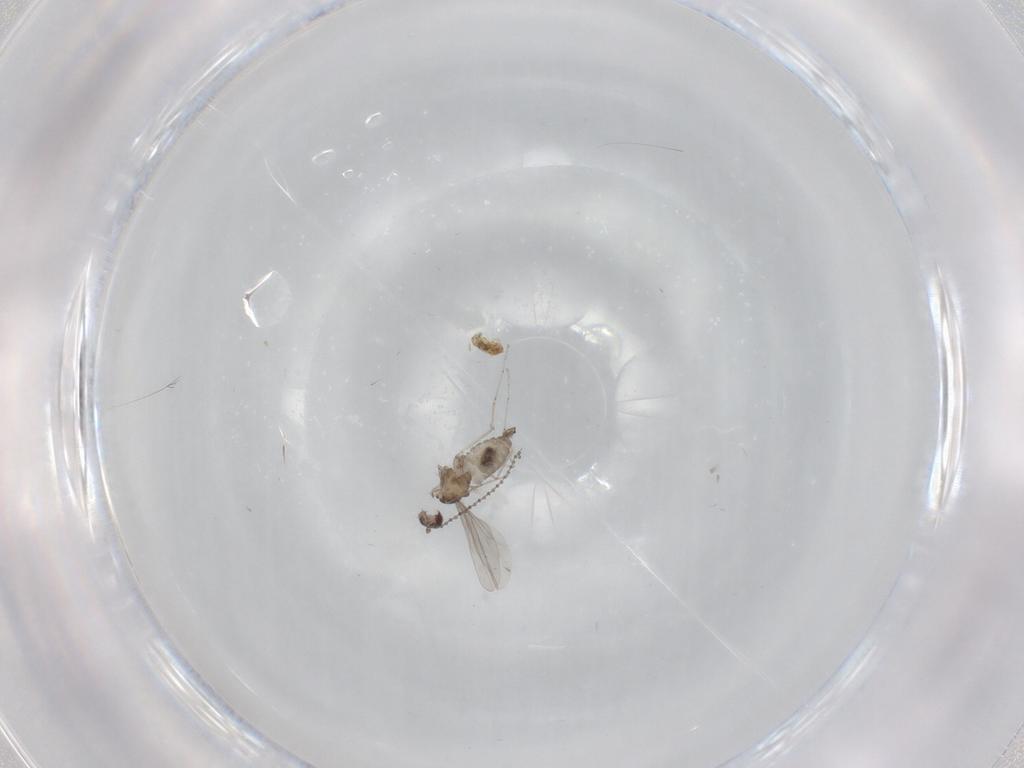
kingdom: Animalia
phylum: Arthropoda
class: Insecta
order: Diptera
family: Cecidomyiidae
